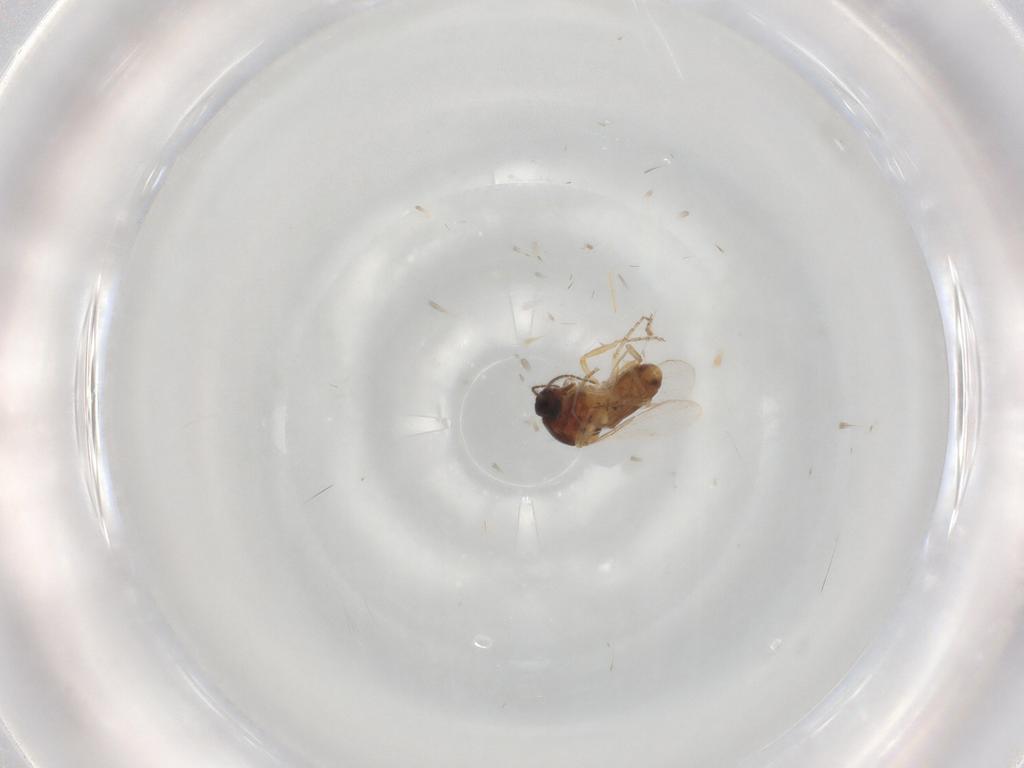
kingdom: Animalia
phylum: Arthropoda
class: Insecta
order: Diptera
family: Ceratopogonidae
